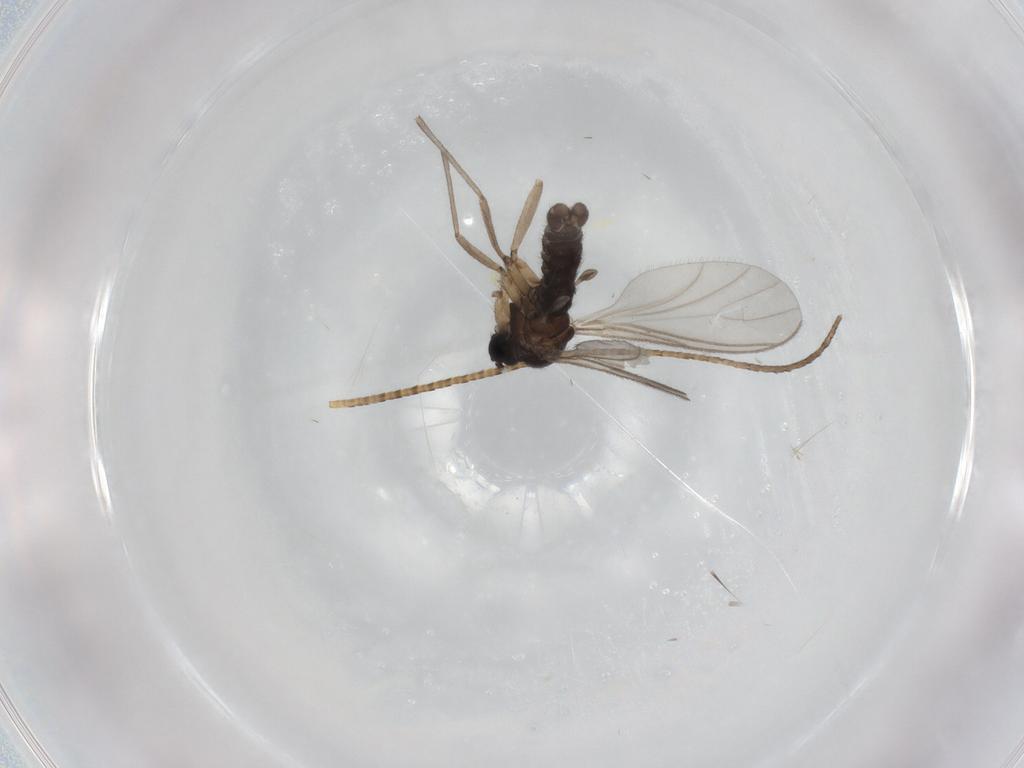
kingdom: Animalia
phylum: Arthropoda
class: Insecta
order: Diptera
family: Sciaridae
